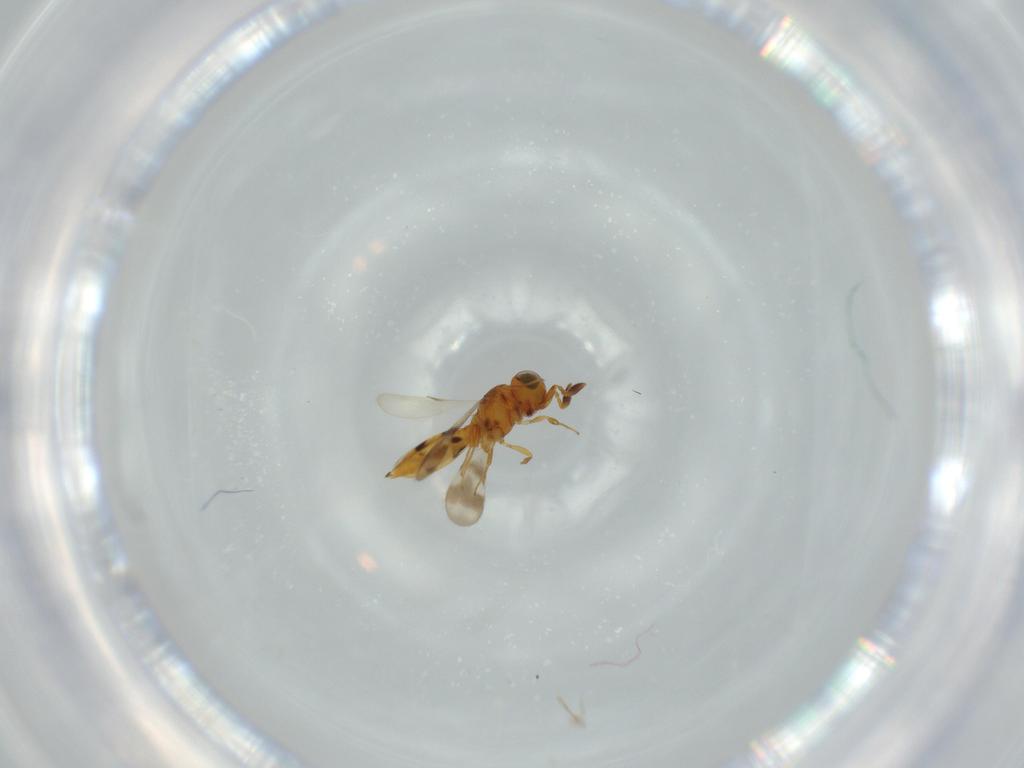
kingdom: Animalia
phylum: Arthropoda
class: Insecta
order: Hymenoptera
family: Scelionidae
